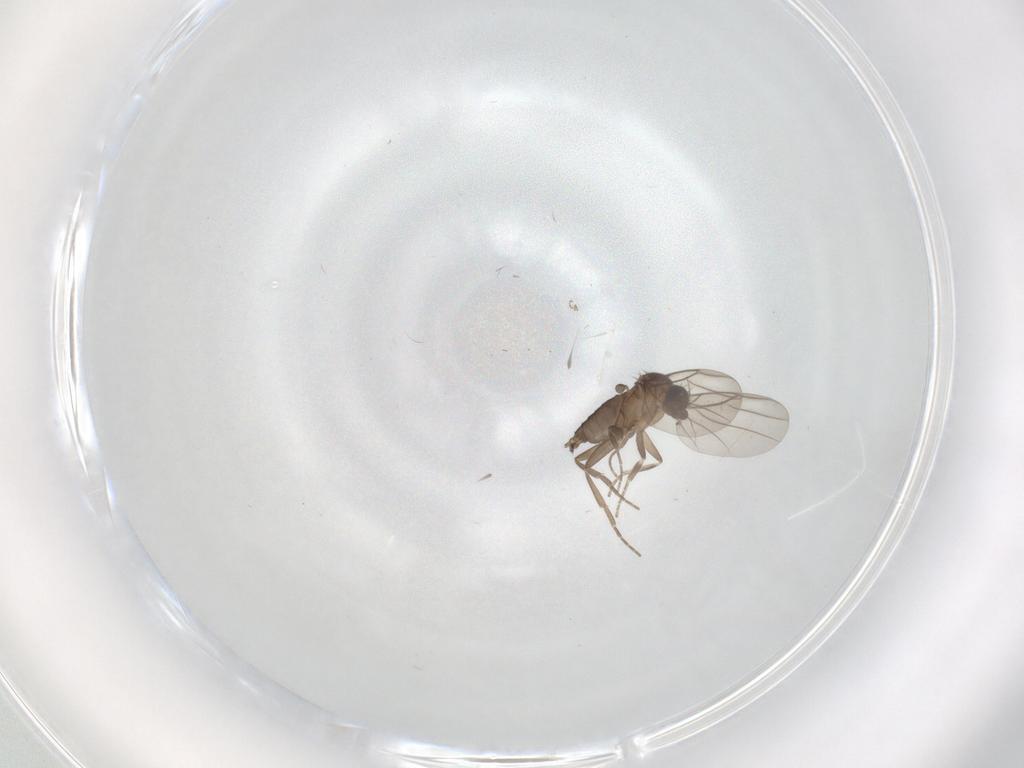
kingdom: Animalia
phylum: Arthropoda
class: Insecta
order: Diptera
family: Phoridae
